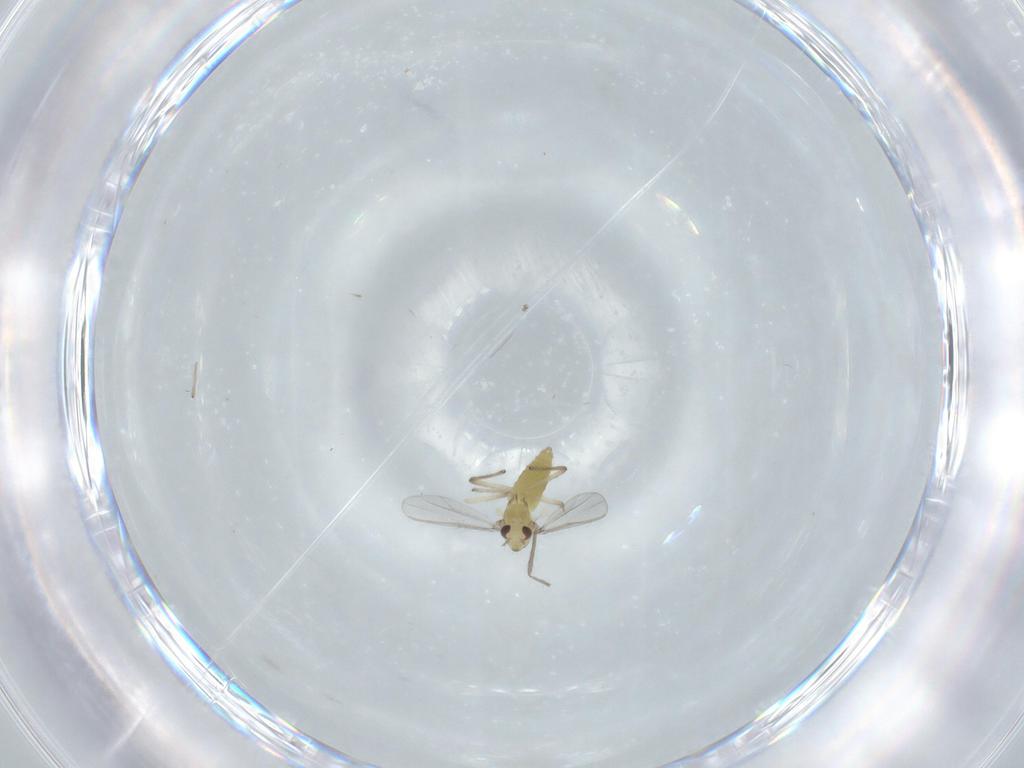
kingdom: Animalia
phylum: Arthropoda
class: Insecta
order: Diptera
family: Chironomidae
